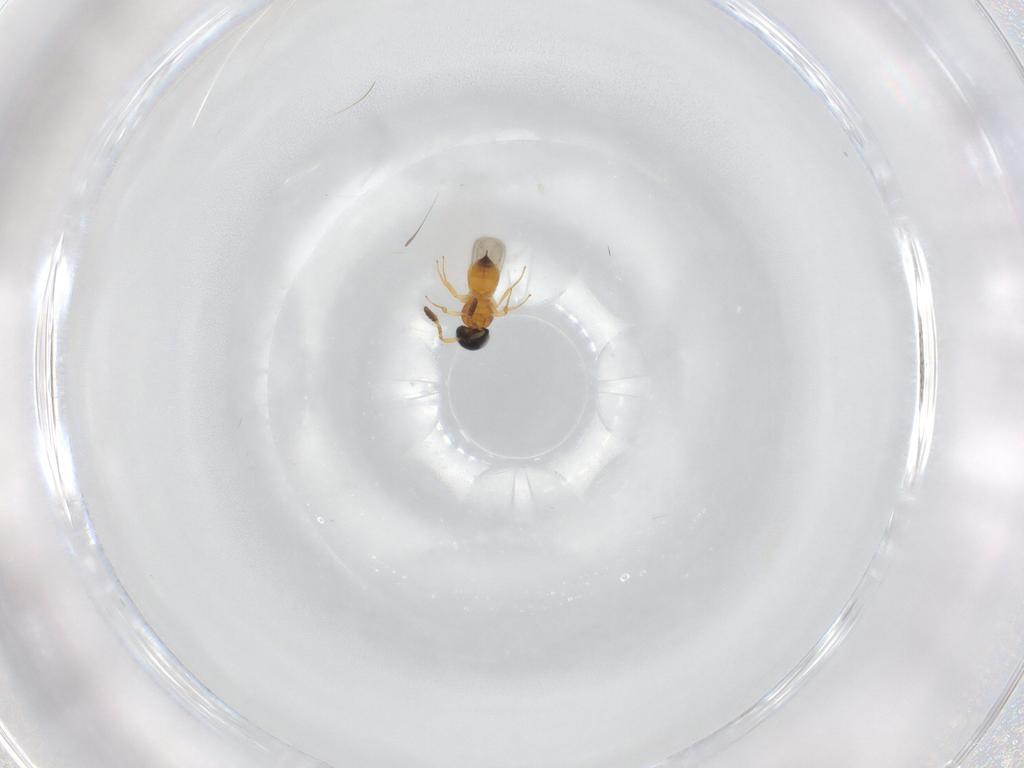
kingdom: Animalia
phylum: Arthropoda
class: Insecta
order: Hymenoptera
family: Scelionidae
